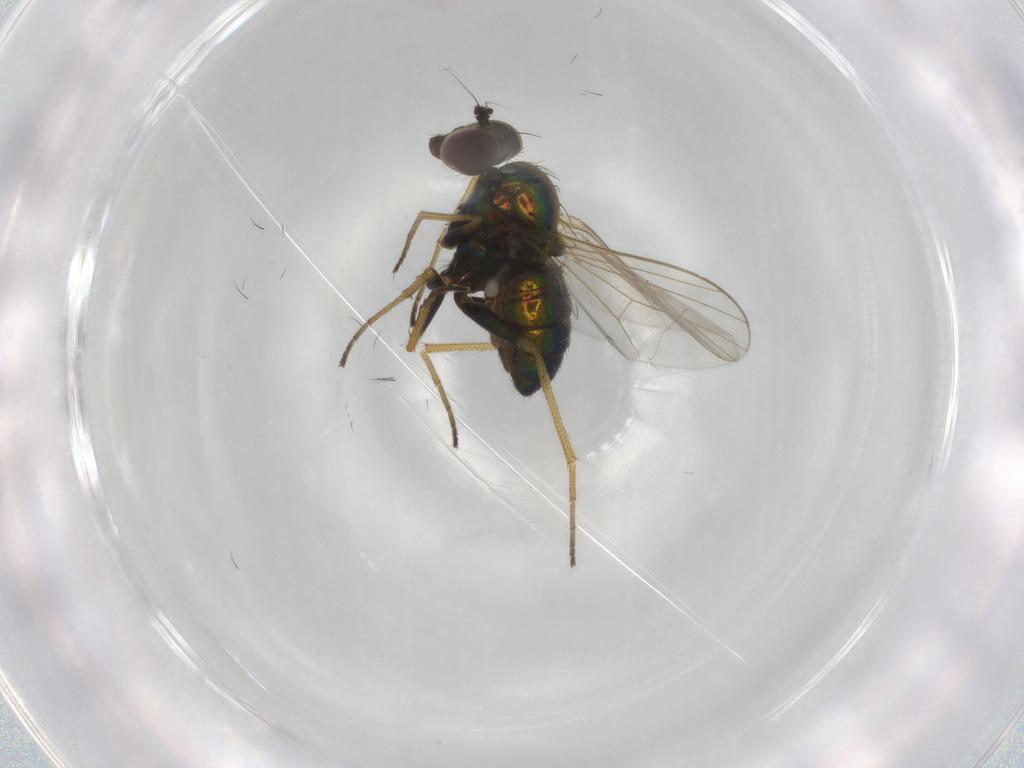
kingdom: Animalia
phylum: Arthropoda
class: Insecta
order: Diptera
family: Dolichopodidae
